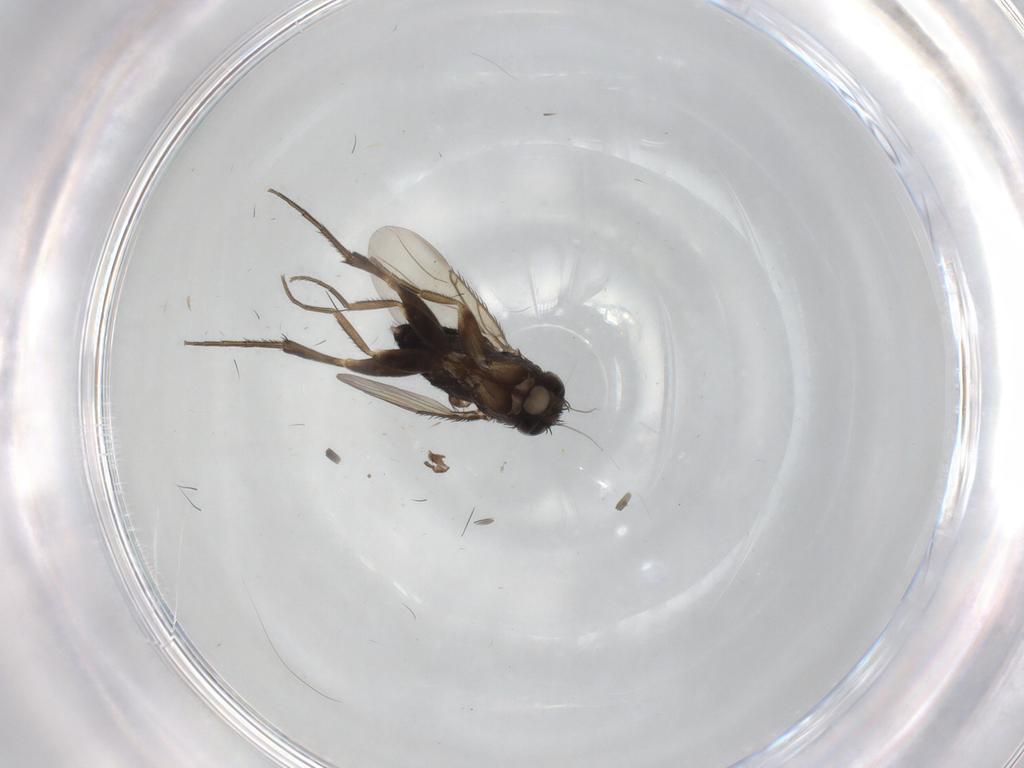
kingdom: Animalia
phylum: Arthropoda
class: Insecta
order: Diptera
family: Phoridae
